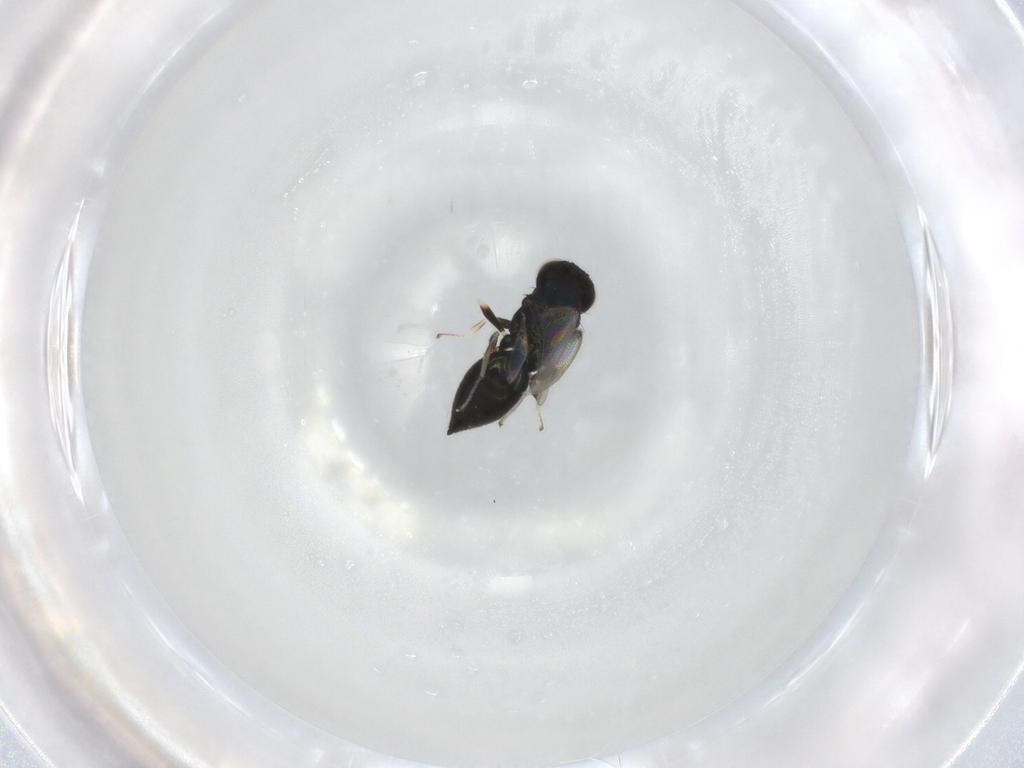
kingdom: Animalia
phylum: Arthropoda
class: Insecta
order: Hymenoptera
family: Eulophidae
